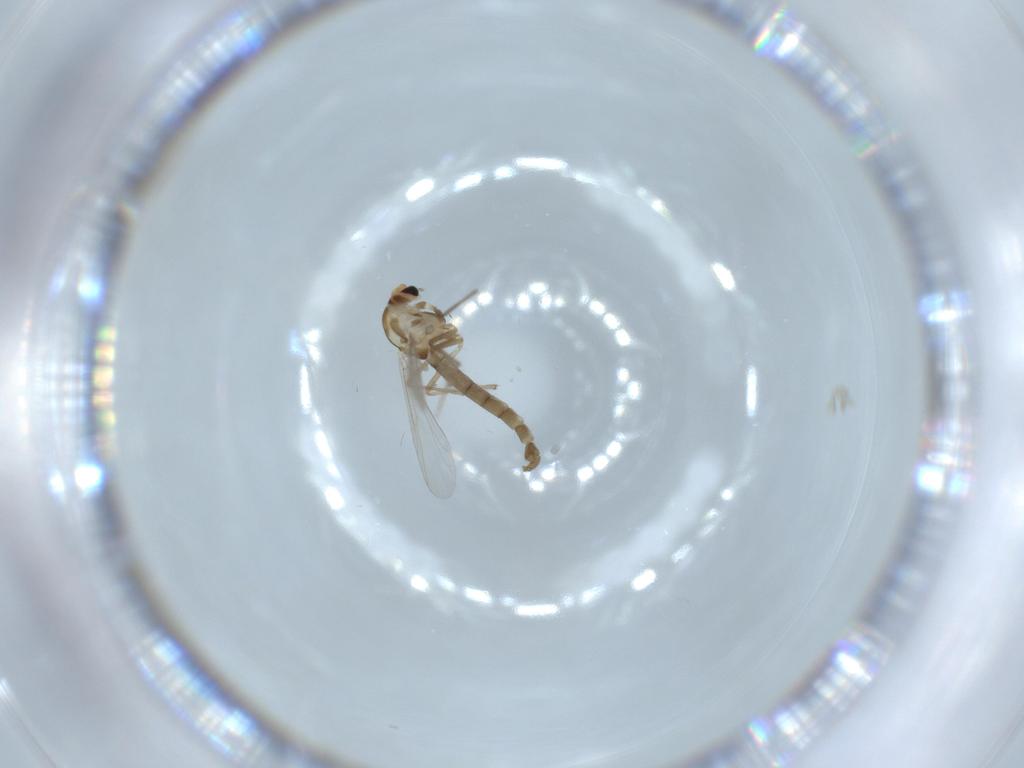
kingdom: Animalia
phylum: Arthropoda
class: Insecta
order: Diptera
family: Chironomidae
